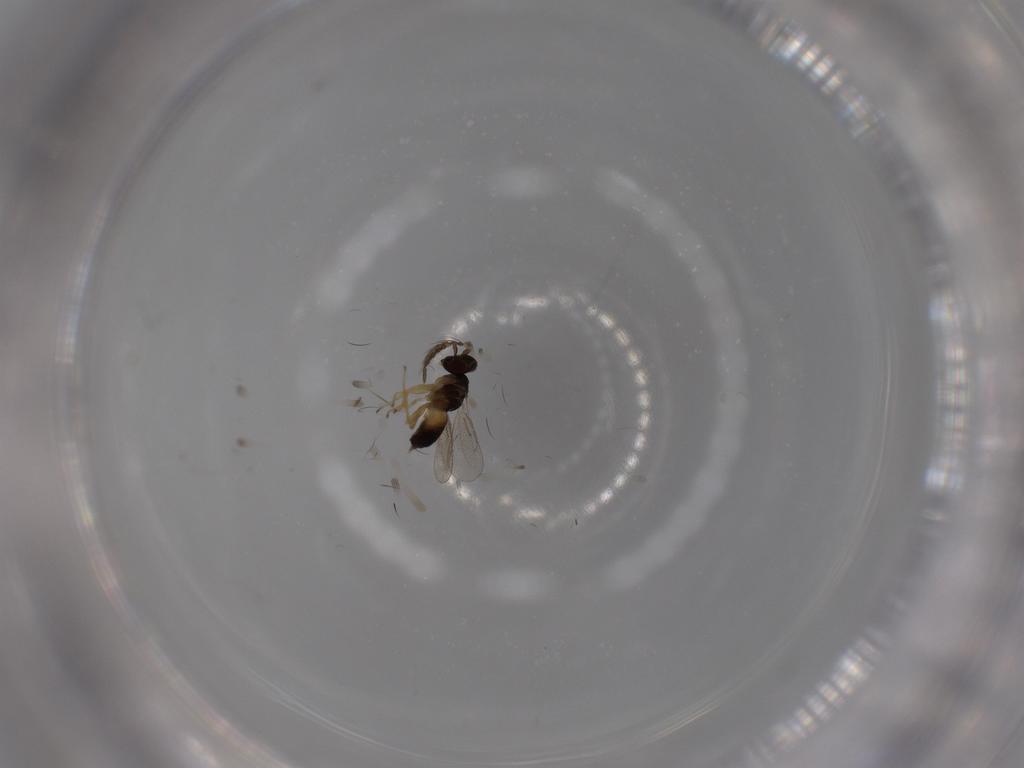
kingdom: Animalia
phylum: Arthropoda
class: Insecta
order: Hymenoptera
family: Eulophidae
